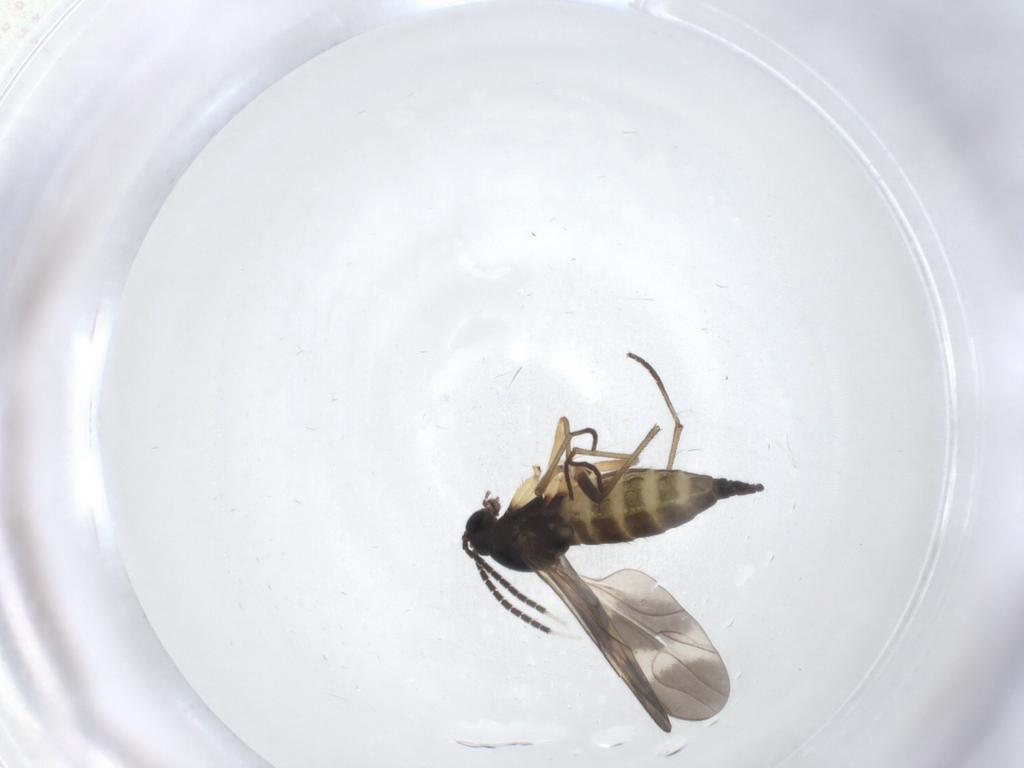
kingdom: Animalia
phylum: Arthropoda
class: Insecta
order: Diptera
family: Sciaridae
